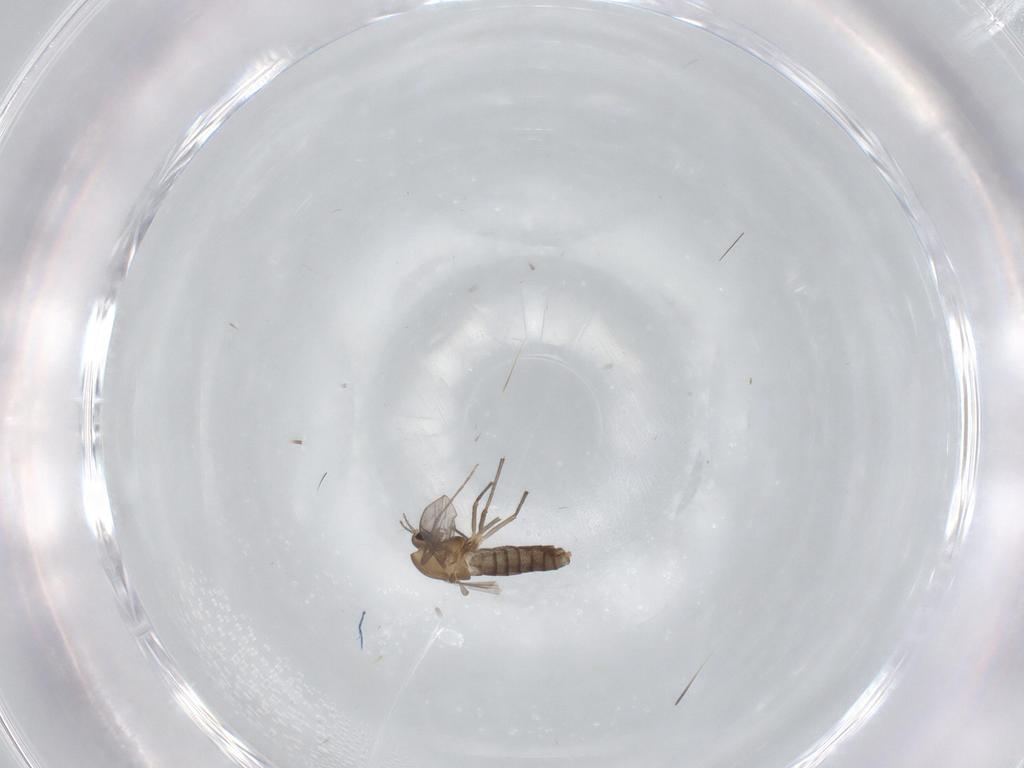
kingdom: Animalia
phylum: Arthropoda
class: Insecta
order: Diptera
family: Chironomidae
